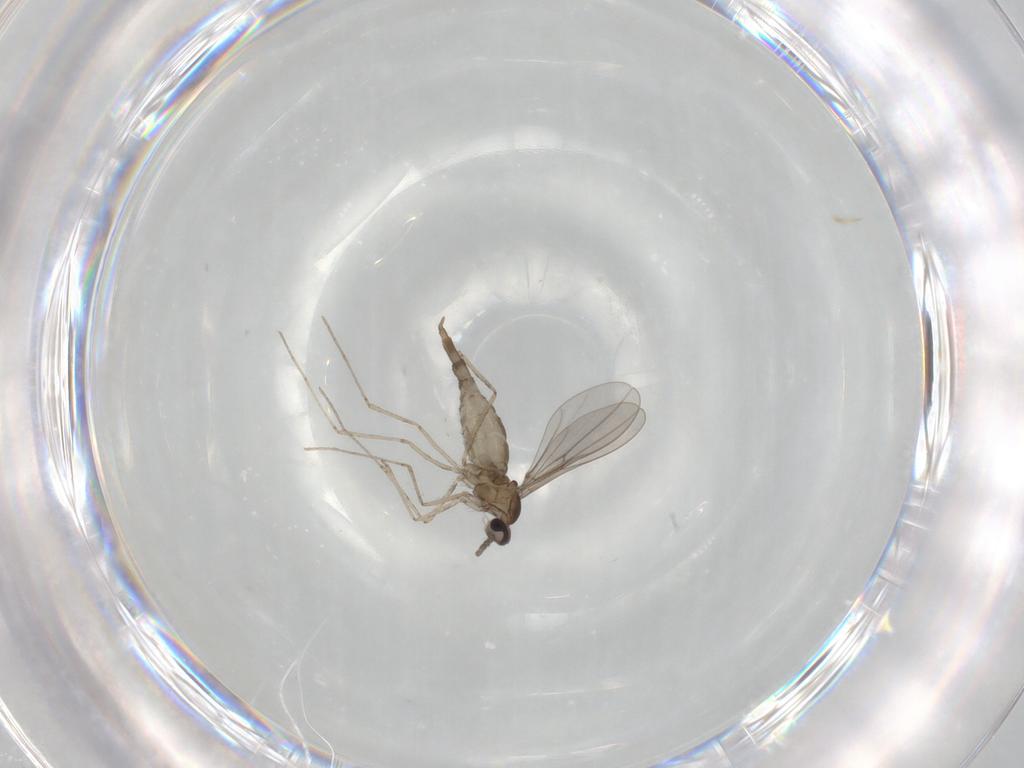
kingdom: Animalia
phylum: Arthropoda
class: Insecta
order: Diptera
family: Cecidomyiidae
